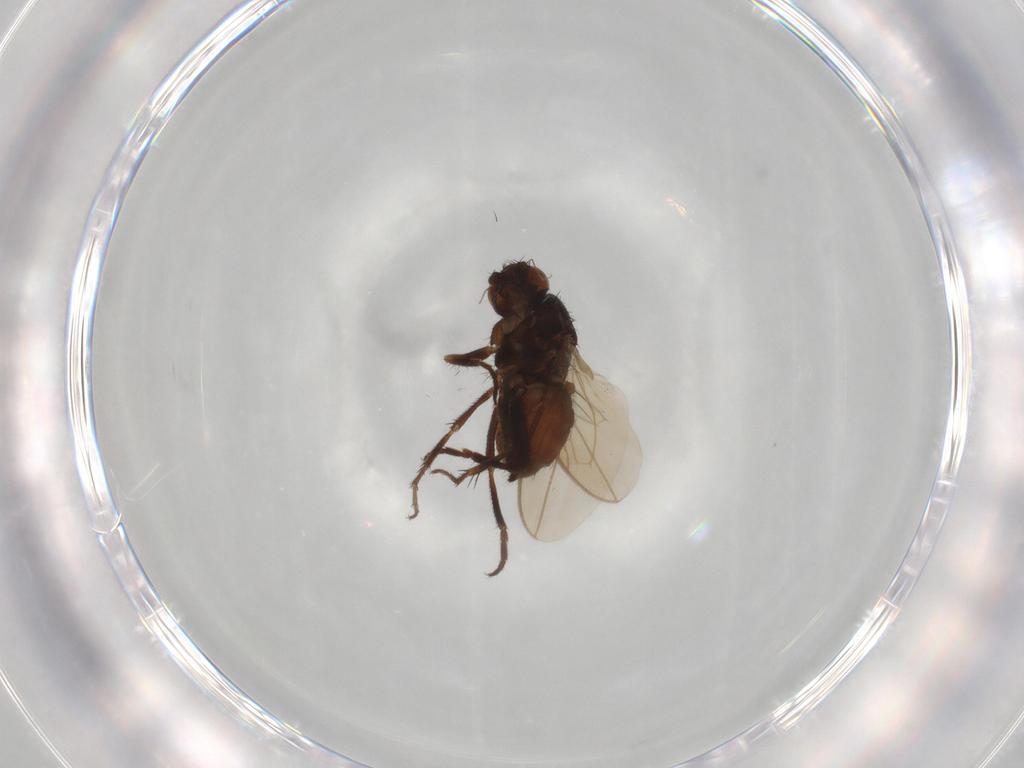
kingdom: Animalia
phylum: Arthropoda
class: Insecta
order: Diptera
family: Sphaeroceridae
